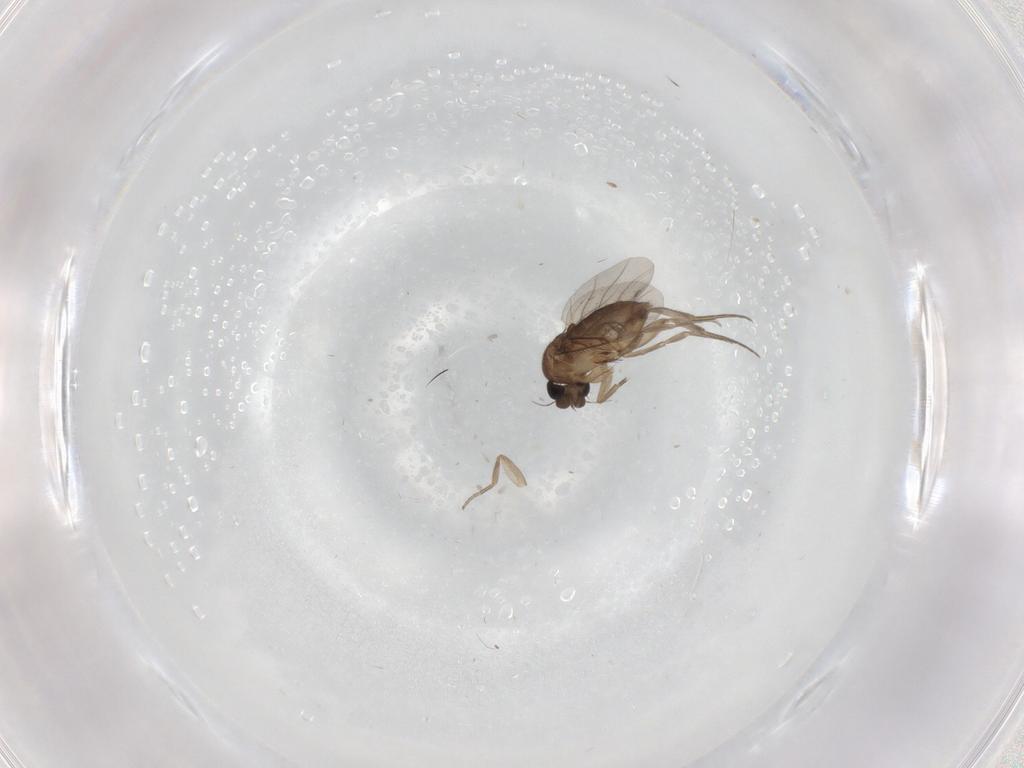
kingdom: Animalia
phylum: Arthropoda
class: Insecta
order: Diptera
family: Phoridae
